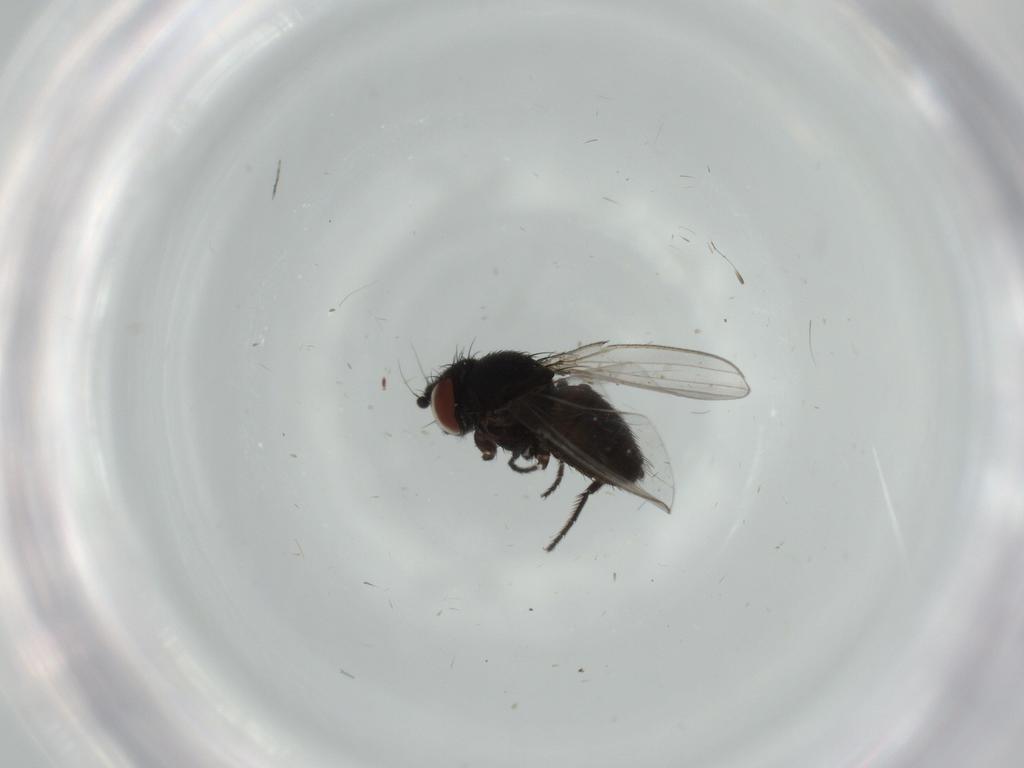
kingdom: Animalia
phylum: Arthropoda
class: Insecta
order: Diptera
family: Milichiidae
